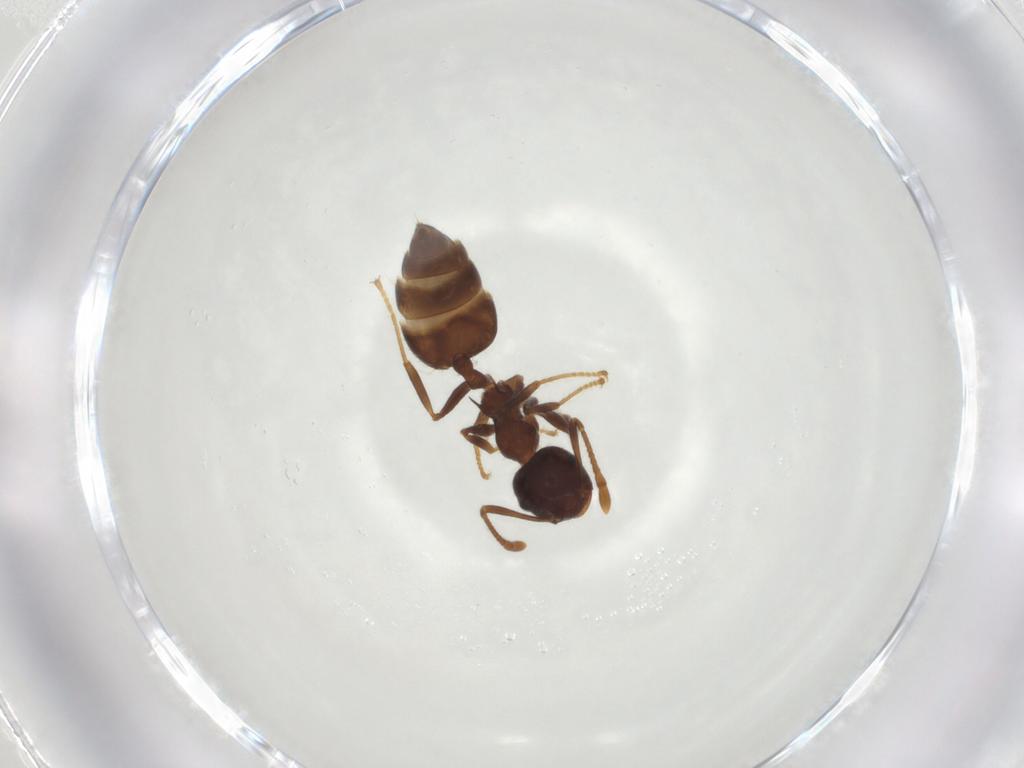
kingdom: Animalia
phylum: Arthropoda
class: Insecta
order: Hymenoptera
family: Formicidae
